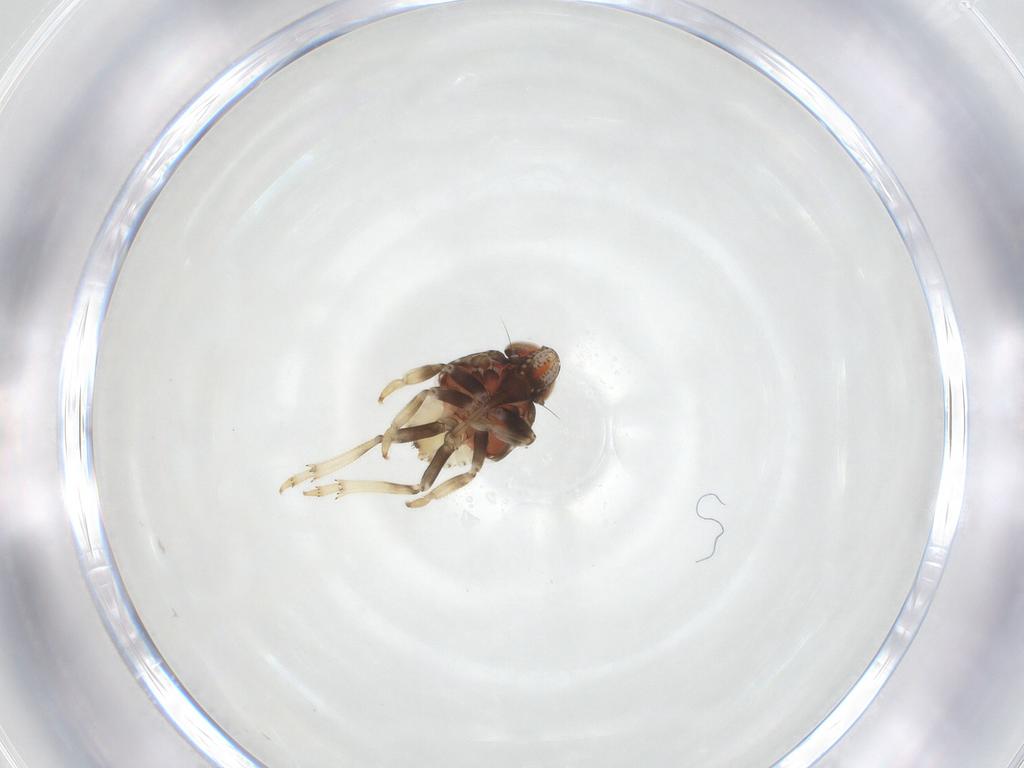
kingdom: Animalia
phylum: Arthropoda
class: Insecta
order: Hemiptera
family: Issidae
